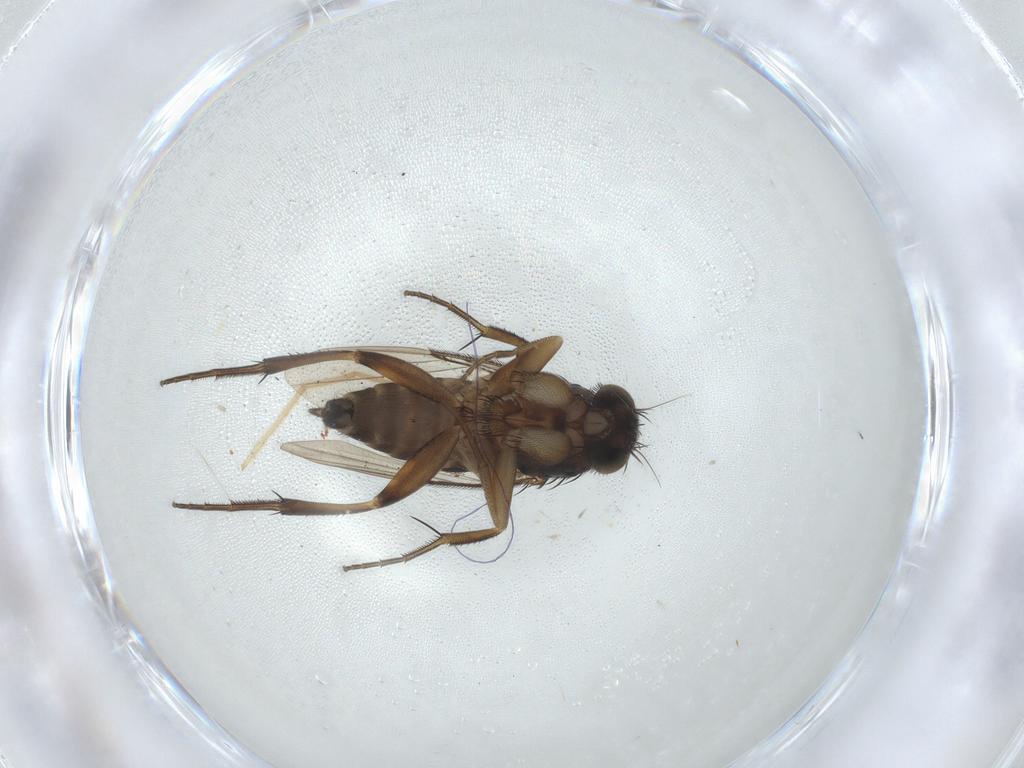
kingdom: Animalia
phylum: Arthropoda
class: Insecta
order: Diptera
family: Phoridae
